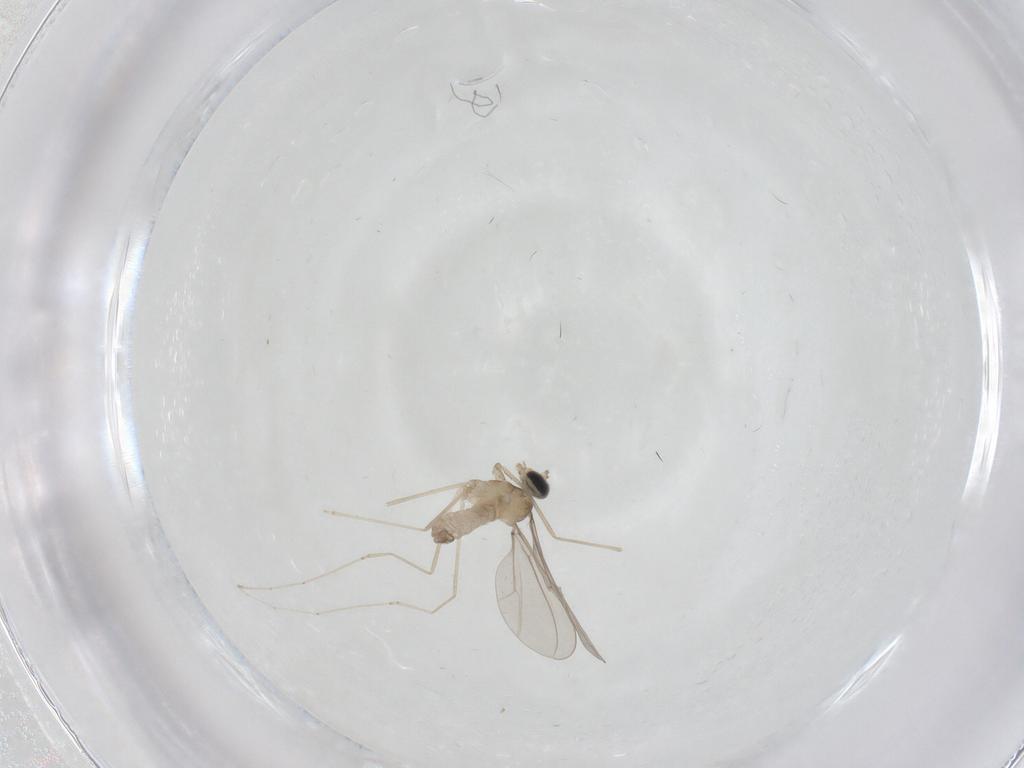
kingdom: Animalia
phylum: Arthropoda
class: Insecta
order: Diptera
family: Cecidomyiidae
